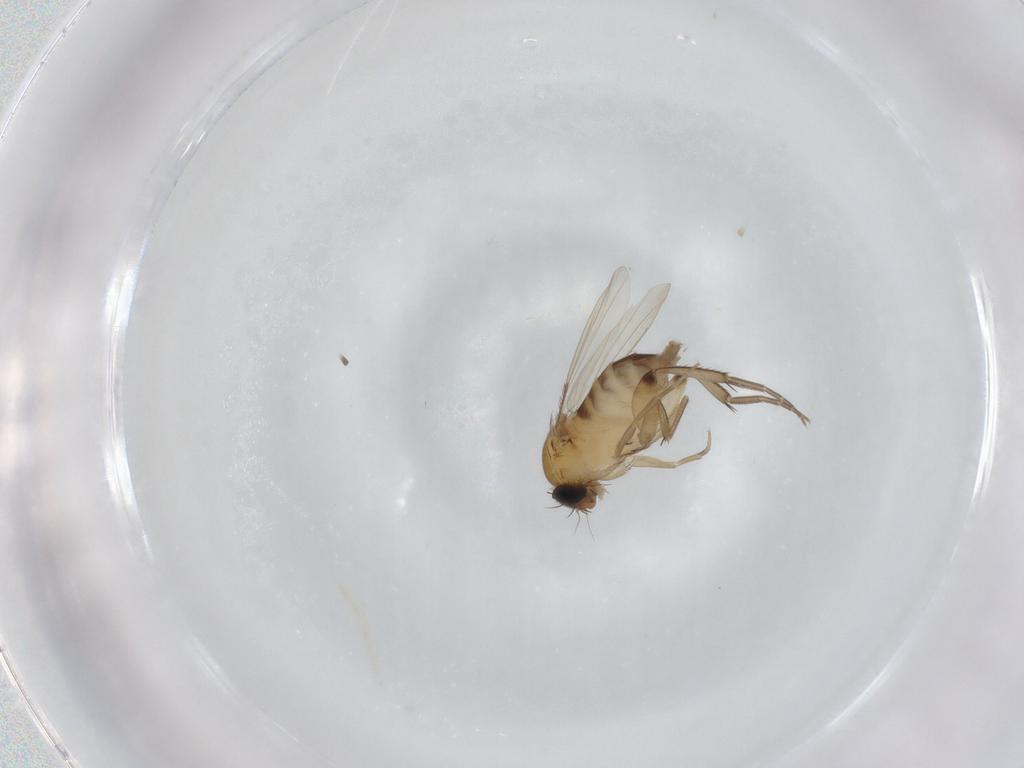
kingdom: Animalia
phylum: Arthropoda
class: Insecta
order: Diptera
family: Phoridae
